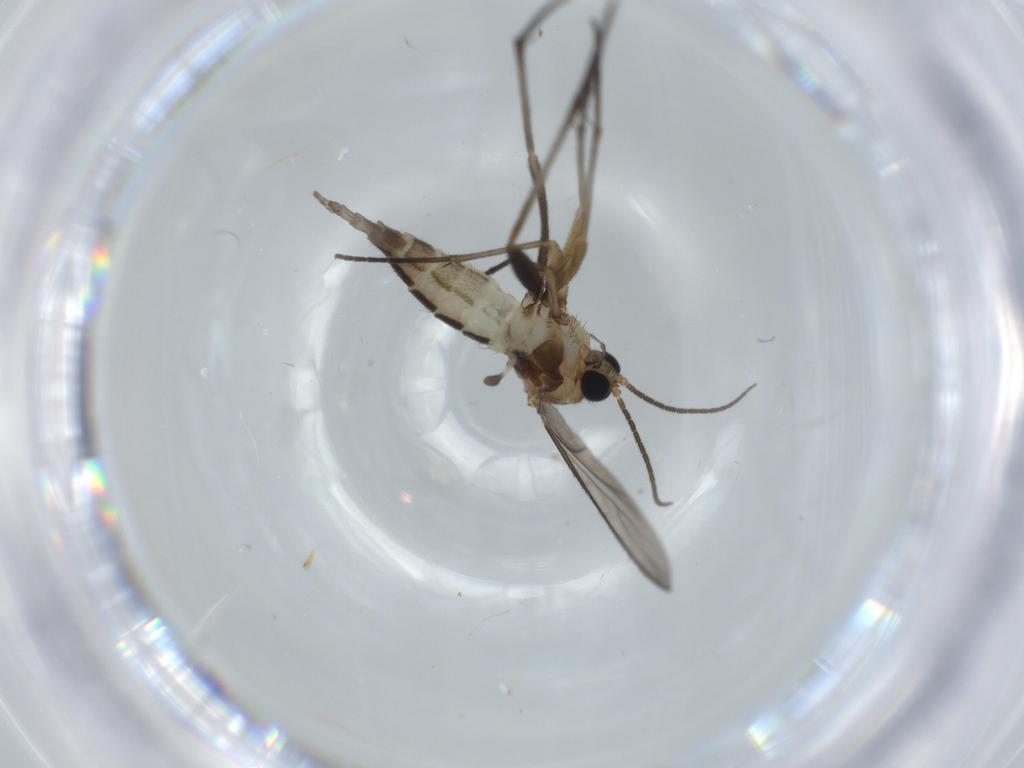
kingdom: Animalia
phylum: Arthropoda
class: Insecta
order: Diptera
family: Sciaridae
